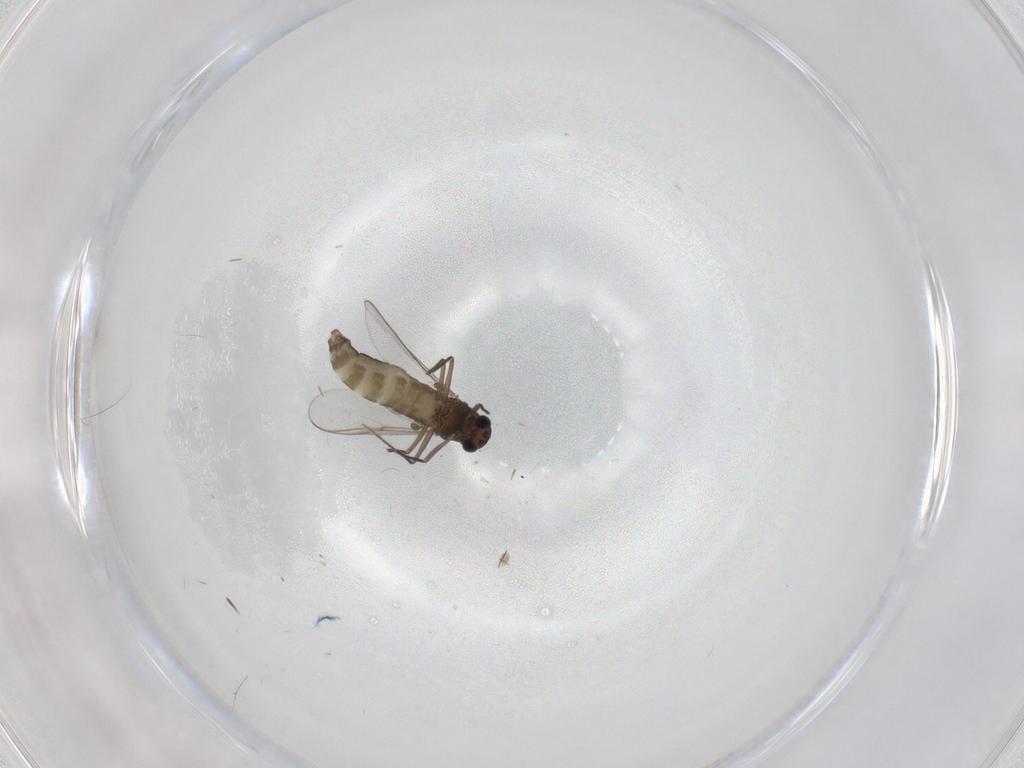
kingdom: Animalia
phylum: Arthropoda
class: Insecta
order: Diptera
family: Chironomidae
